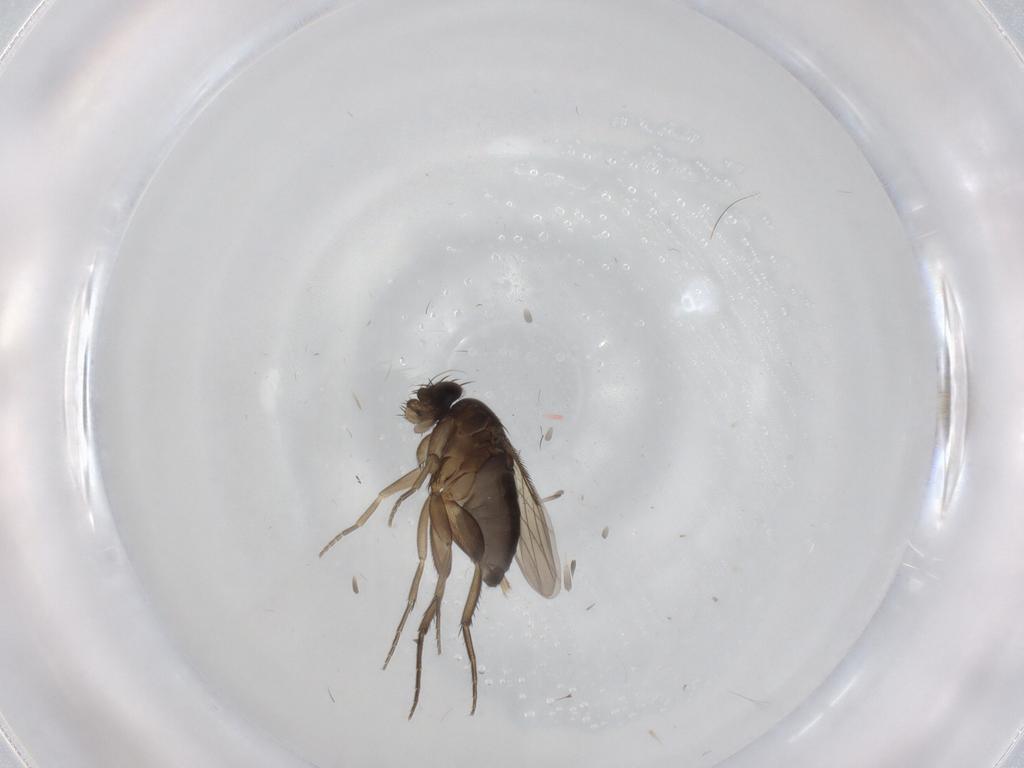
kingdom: Animalia
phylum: Arthropoda
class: Insecta
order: Diptera
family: Phoridae
